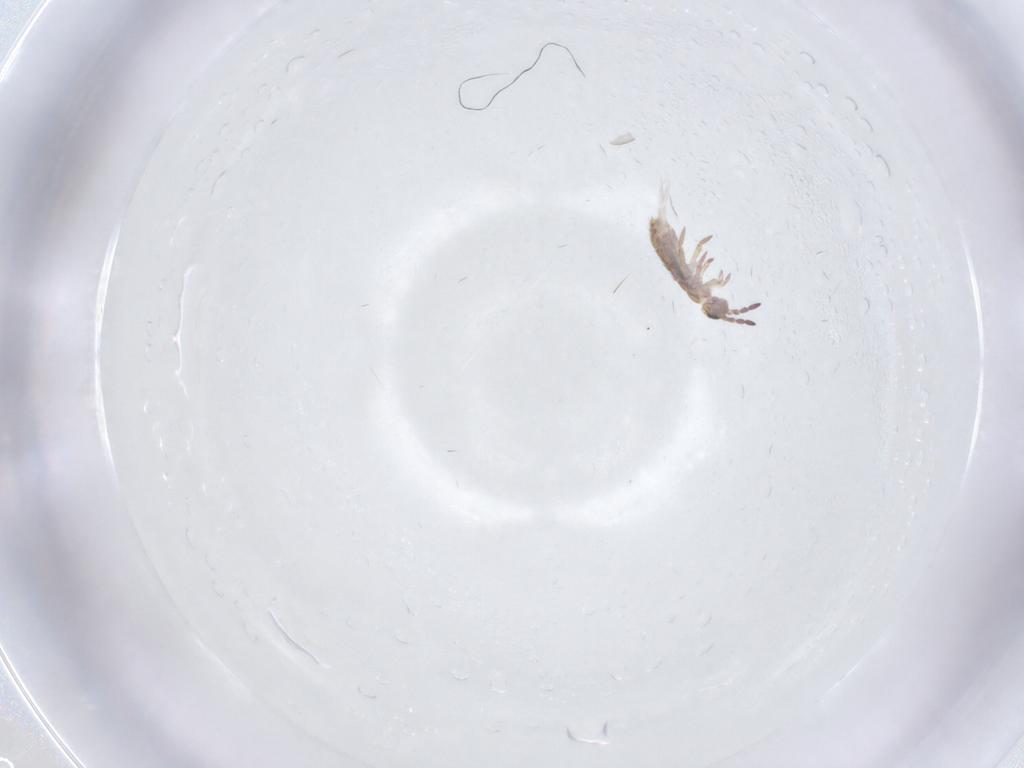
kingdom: Animalia
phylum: Arthropoda
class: Collembola
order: Entomobryomorpha
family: Isotomidae
